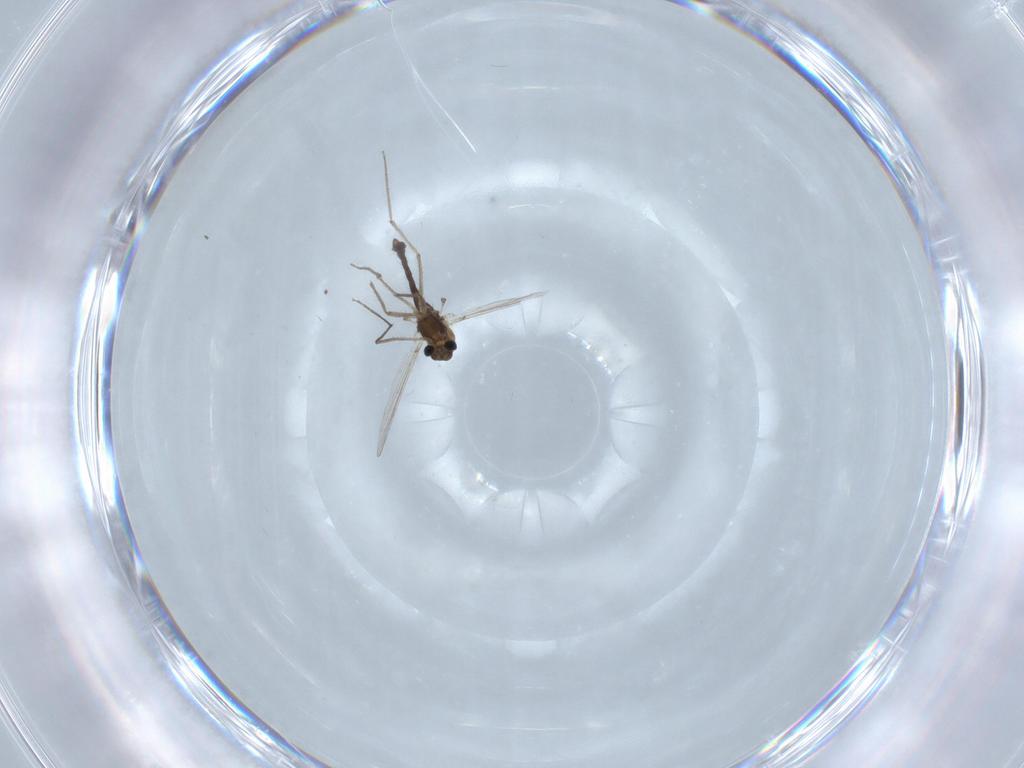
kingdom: Animalia
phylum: Arthropoda
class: Insecta
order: Diptera
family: Chironomidae
